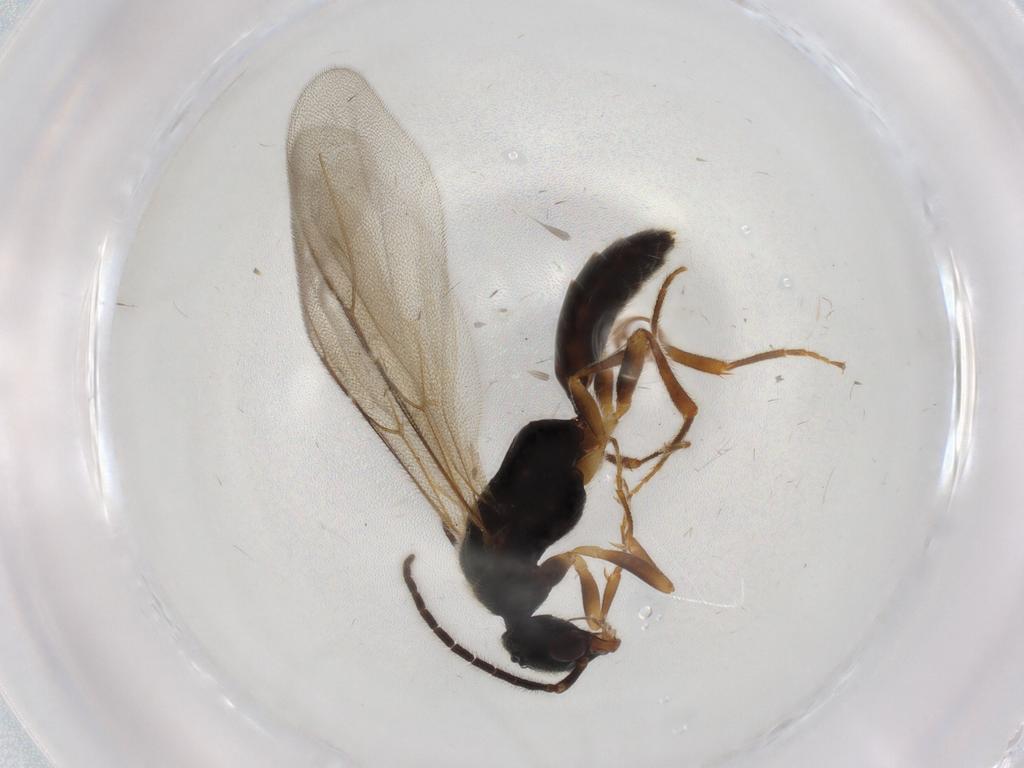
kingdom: Animalia
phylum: Arthropoda
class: Insecta
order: Hymenoptera
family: Bethylidae
